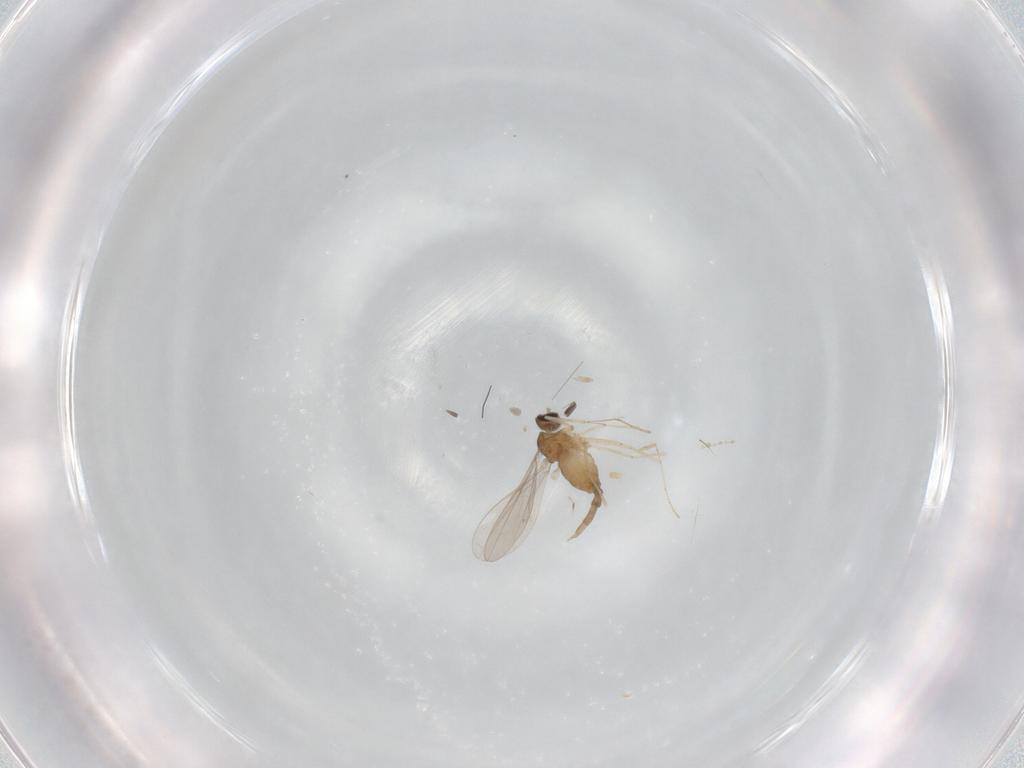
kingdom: Animalia
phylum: Arthropoda
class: Insecta
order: Diptera
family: Cecidomyiidae
